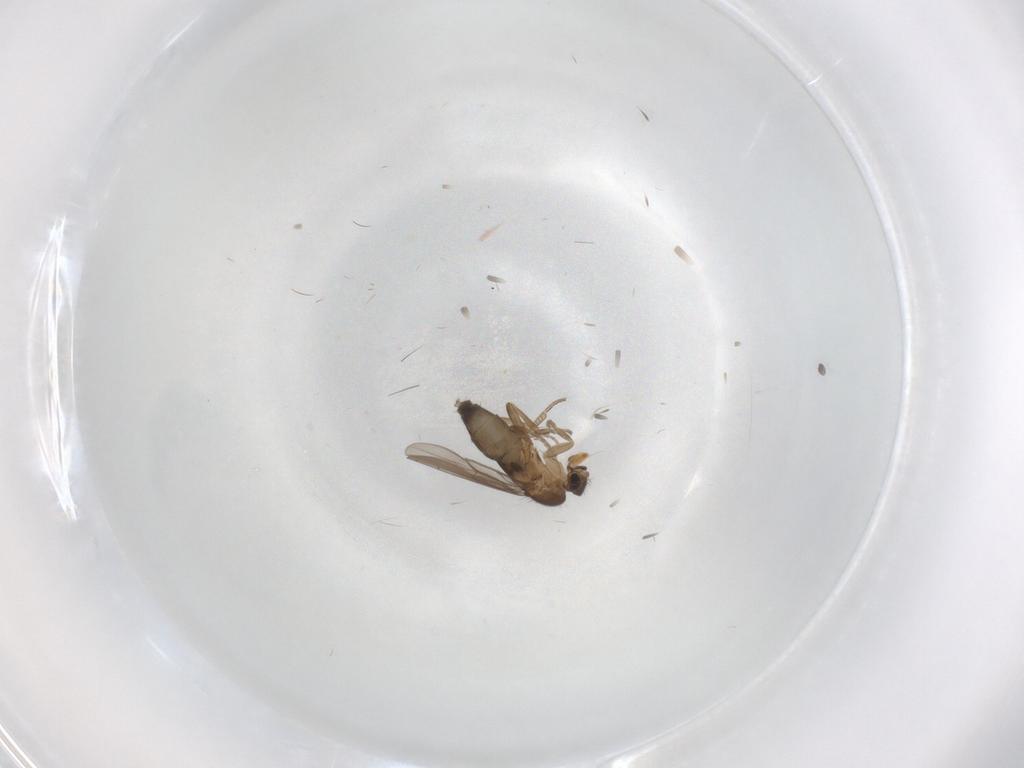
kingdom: Animalia
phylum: Arthropoda
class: Insecta
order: Diptera
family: Phoridae
